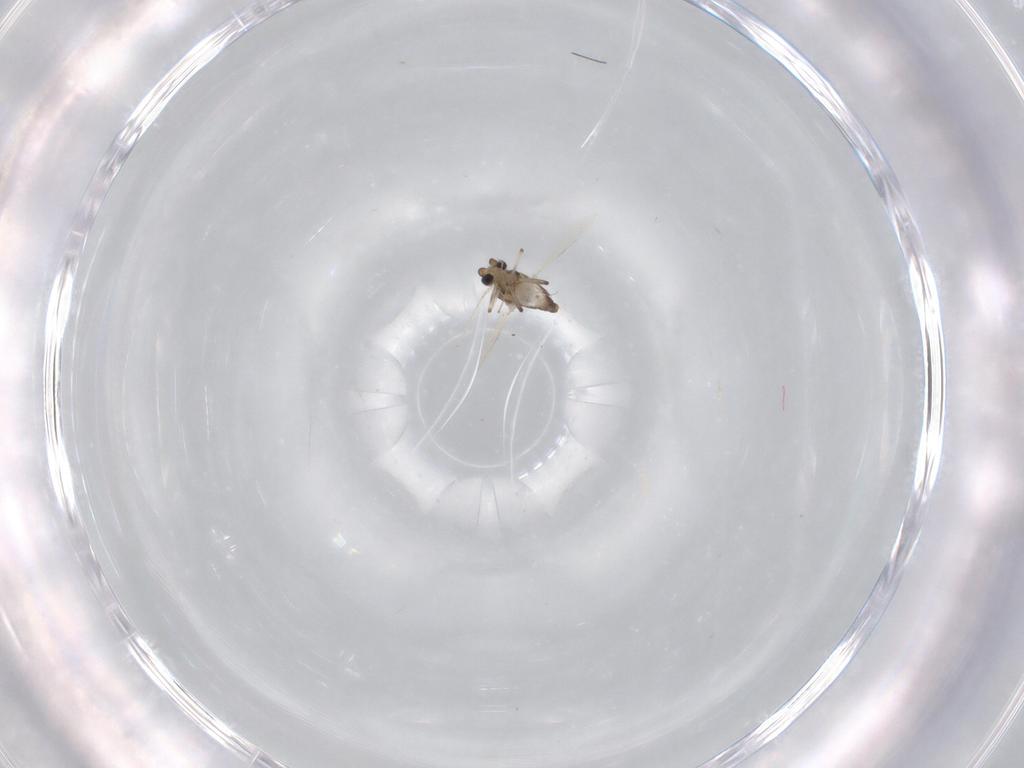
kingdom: Animalia
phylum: Arthropoda
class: Insecta
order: Diptera
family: Ceratopogonidae
